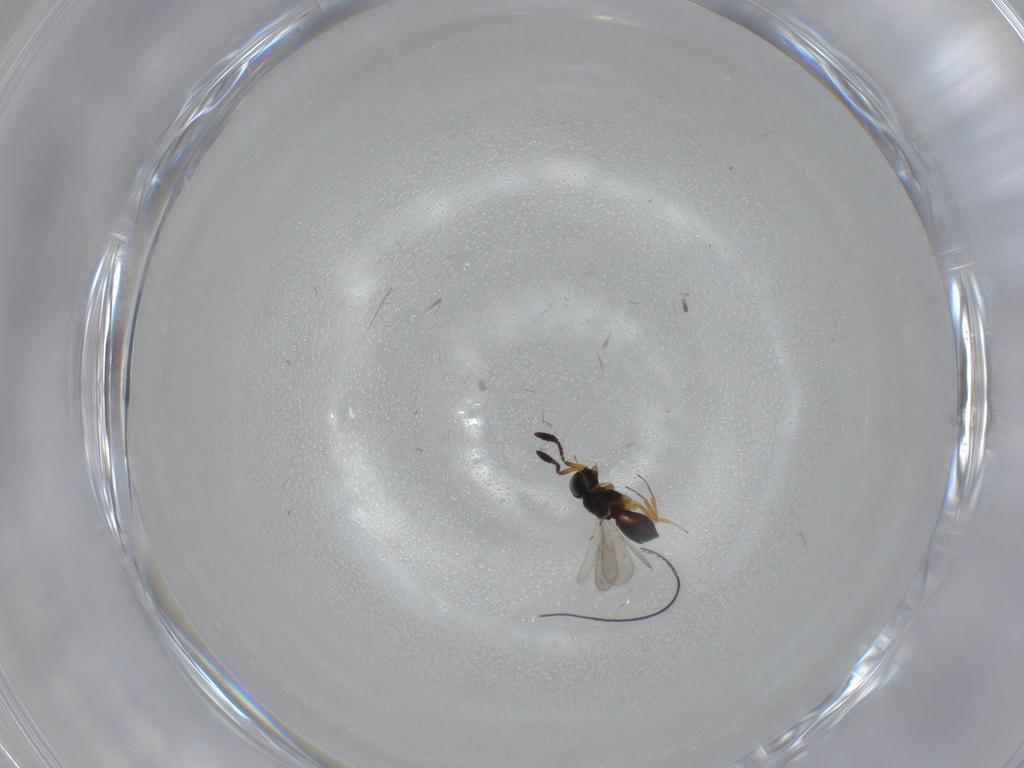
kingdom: Animalia
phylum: Arthropoda
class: Insecta
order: Hymenoptera
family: Scelionidae
